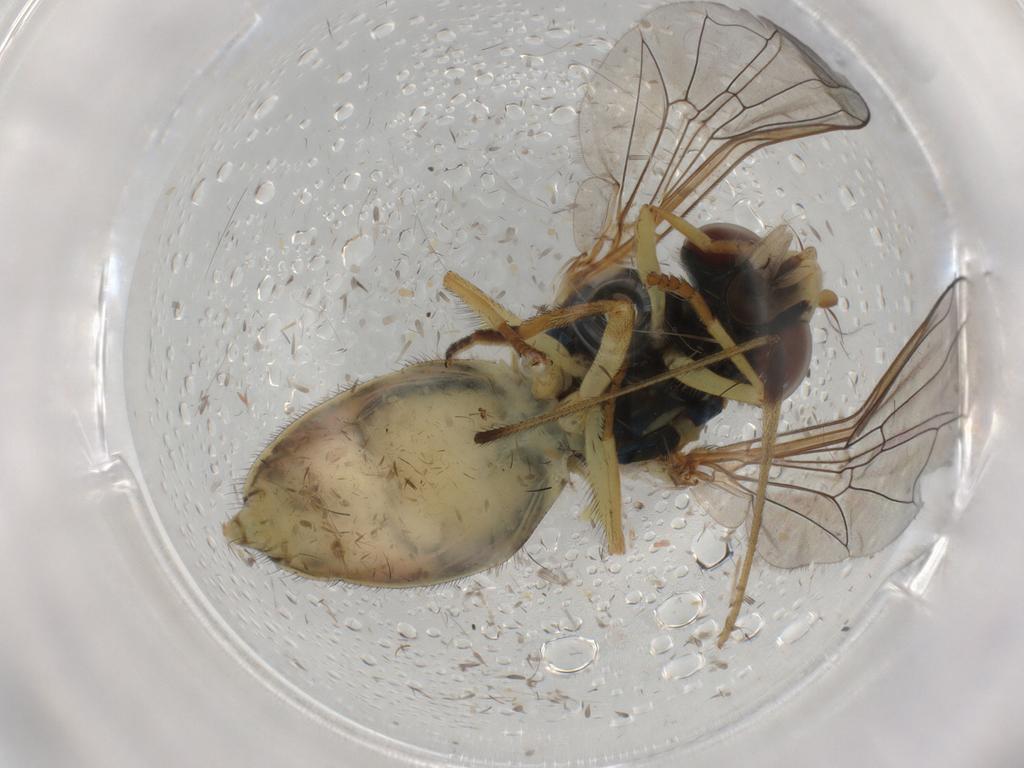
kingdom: Animalia
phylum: Arthropoda
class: Insecta
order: Diptera
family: Syrphidae
